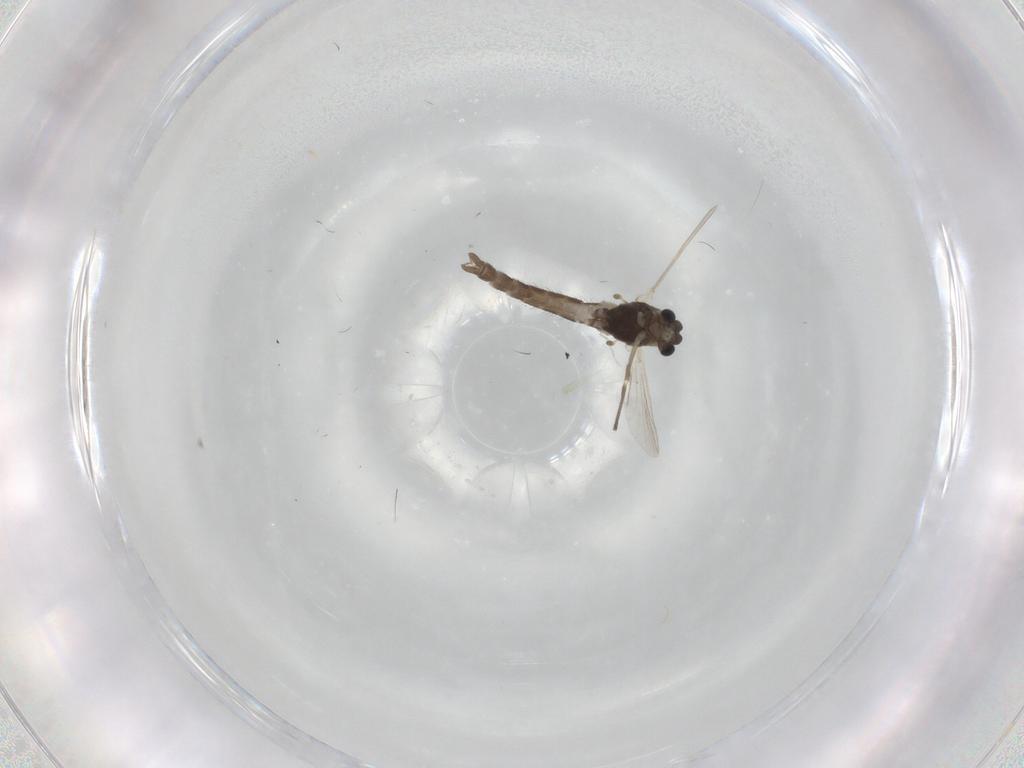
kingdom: Animalia
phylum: Arthropoda
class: Insecta
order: Diptera
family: Chironomidae
